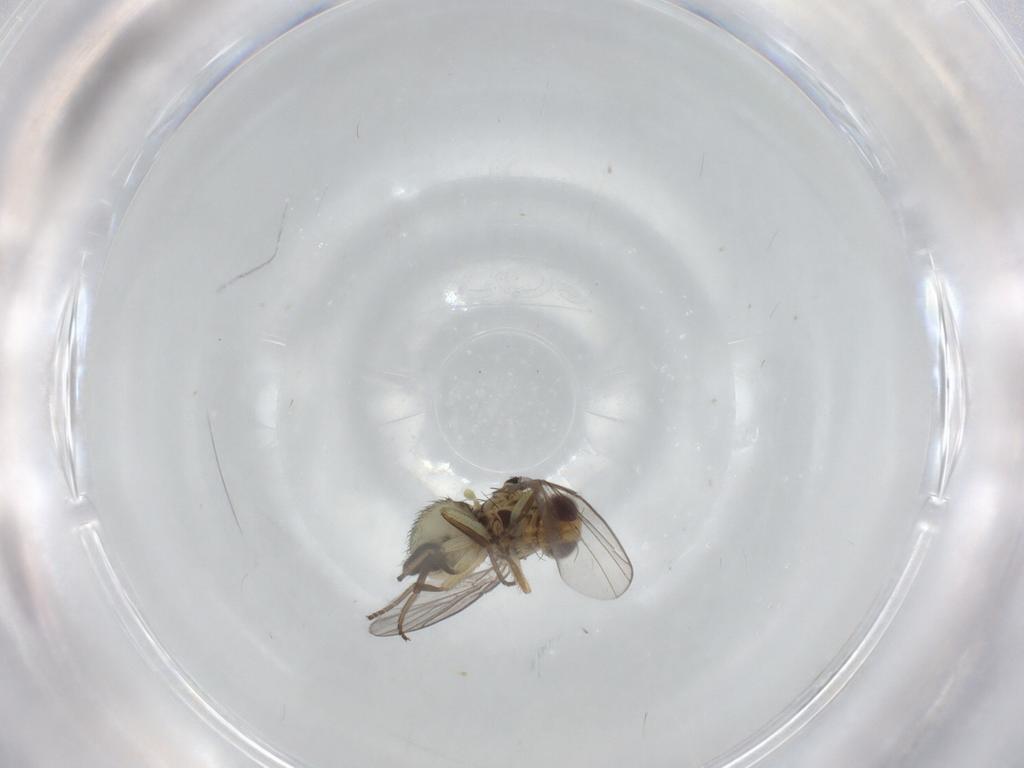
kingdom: Animalia
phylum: Arthropoda
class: Insecta
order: Diptera
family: Agromyzidae
